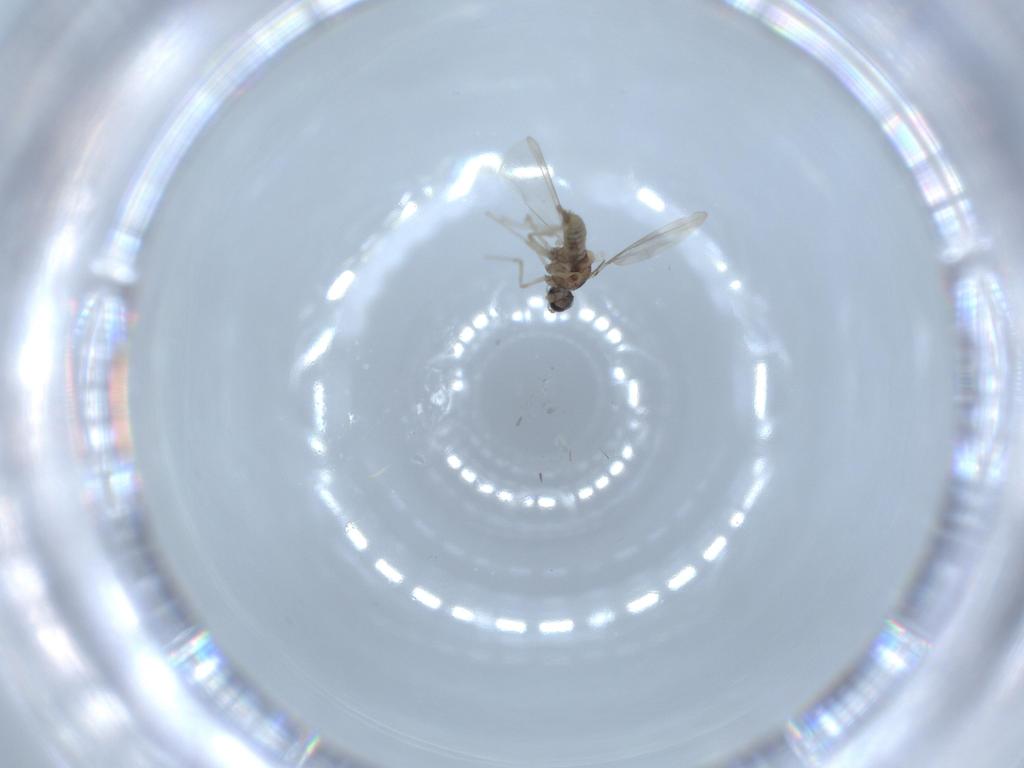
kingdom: Animalia
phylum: Arthropoda
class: Insecta
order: Diptera
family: Cecidomyiidae
